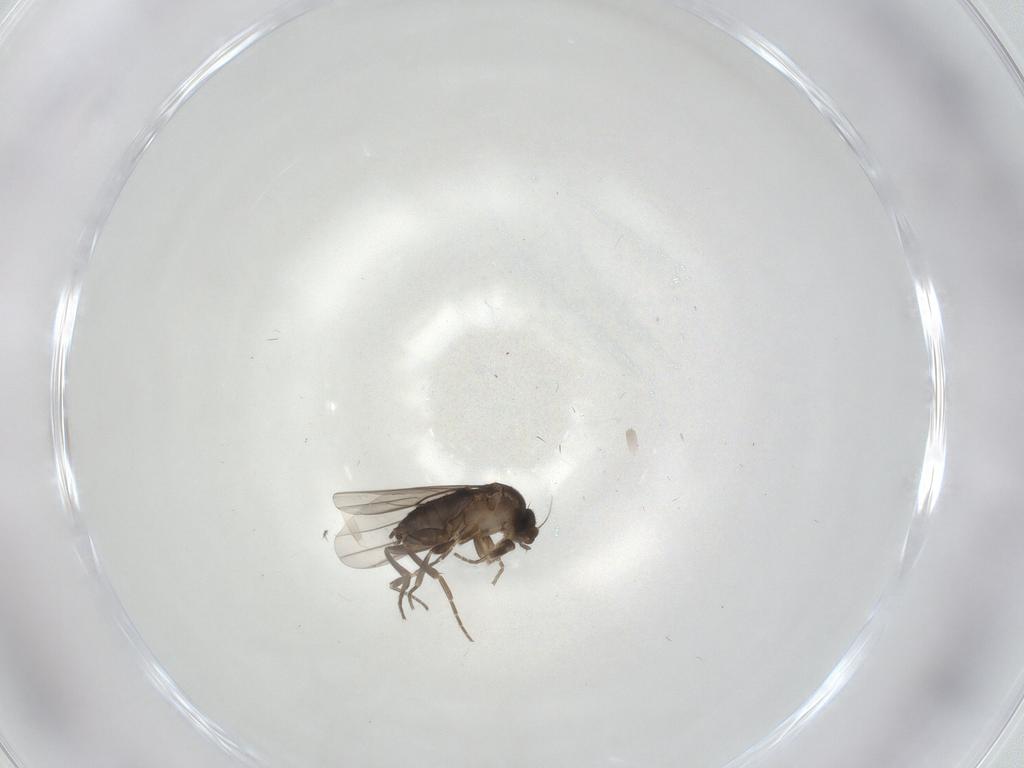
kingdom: Animalia
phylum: Arthropoda
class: Insecta
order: Diptera
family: Phoridae
